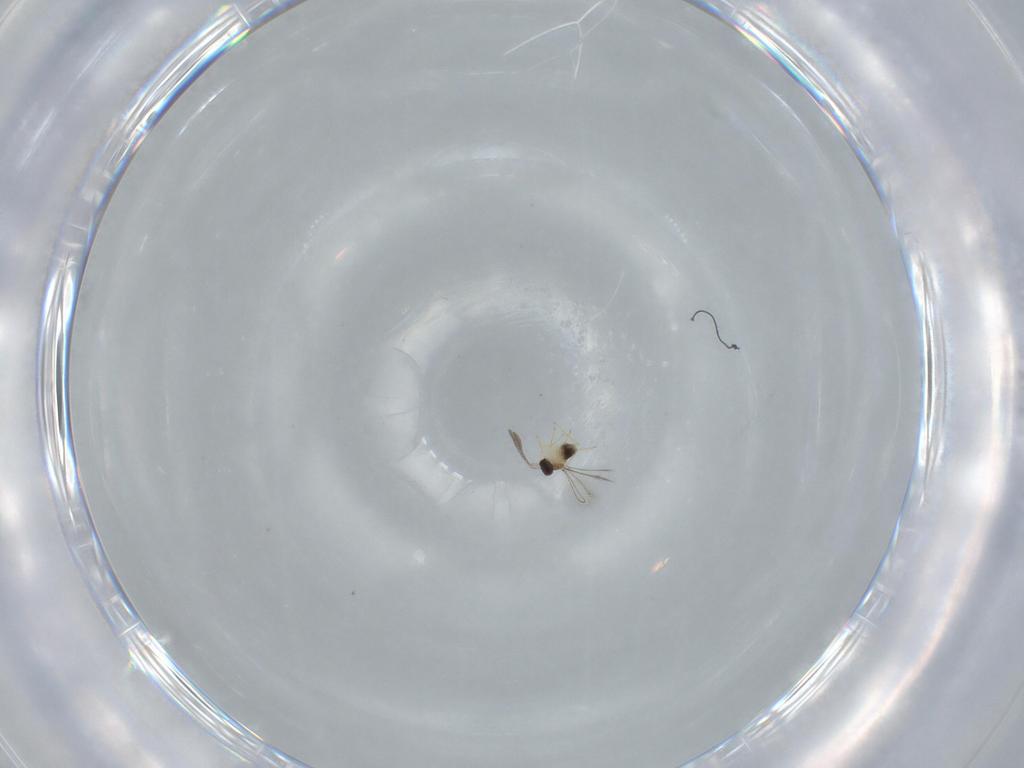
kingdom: Animalia
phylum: Arthropoda
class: Insecta
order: Hymenoptera
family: Mymaridae
